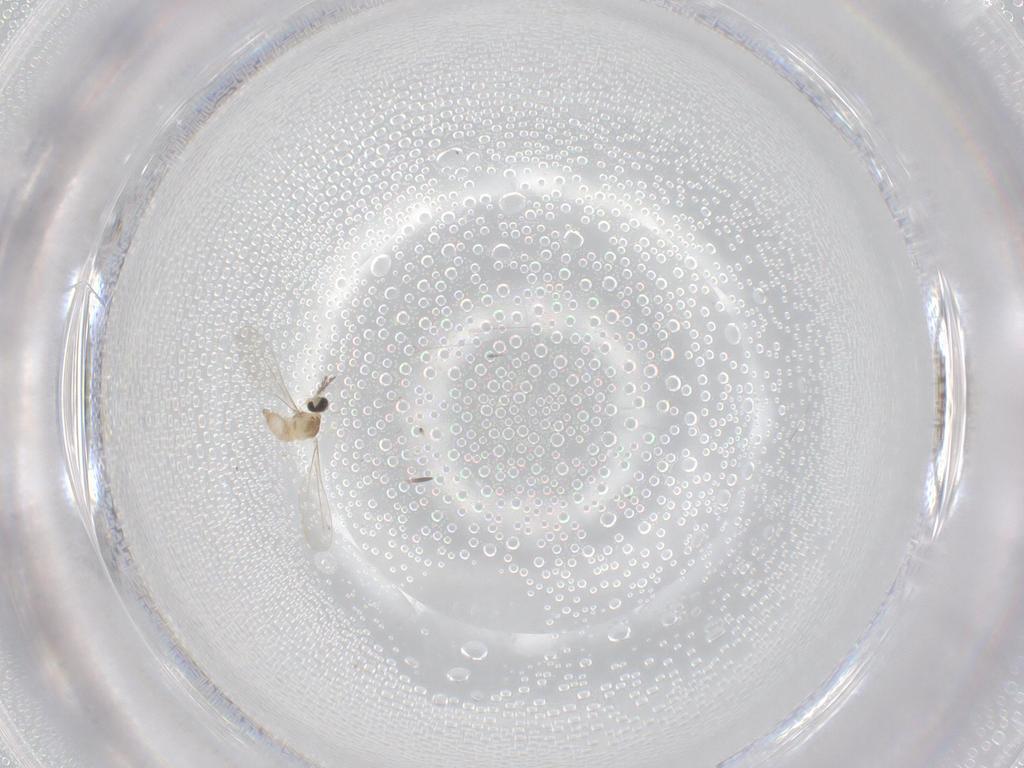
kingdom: Animalia
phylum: Arthropoda
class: Insecta
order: Diptera
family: Cecidomyiidae
